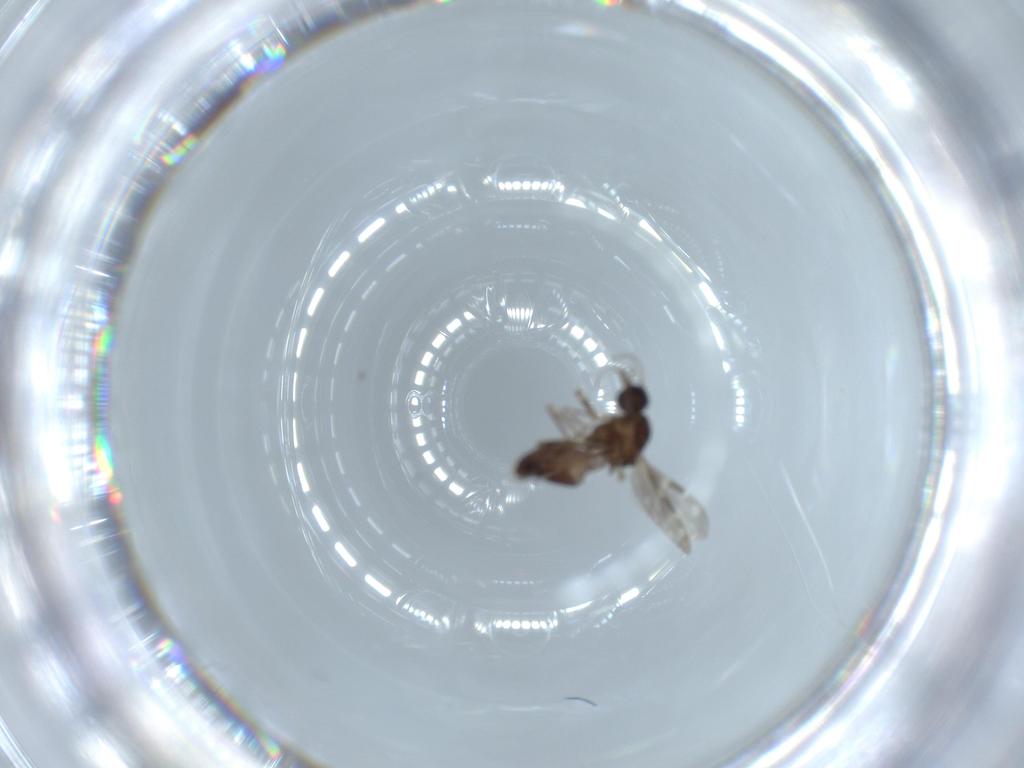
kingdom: Animalia
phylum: Arthropoda
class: Insecta
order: Diptera
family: Ceratopogonidae
